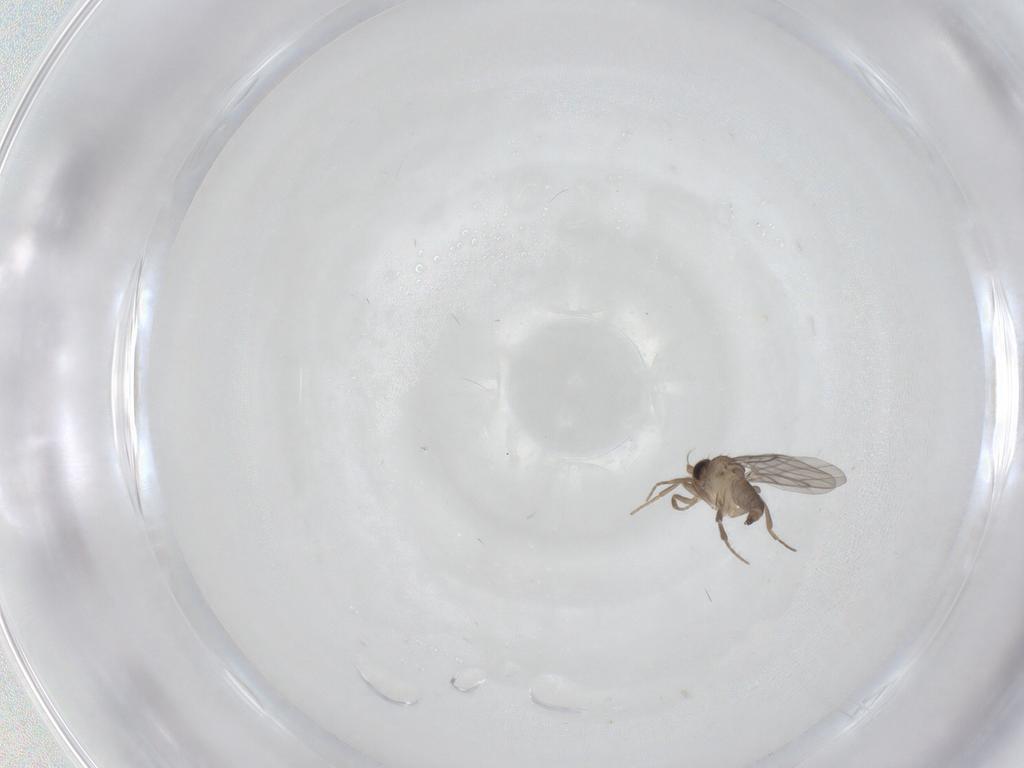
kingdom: Animalia
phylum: Arthropoda
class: Insecta
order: Diptera
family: Cecidomyiidae
